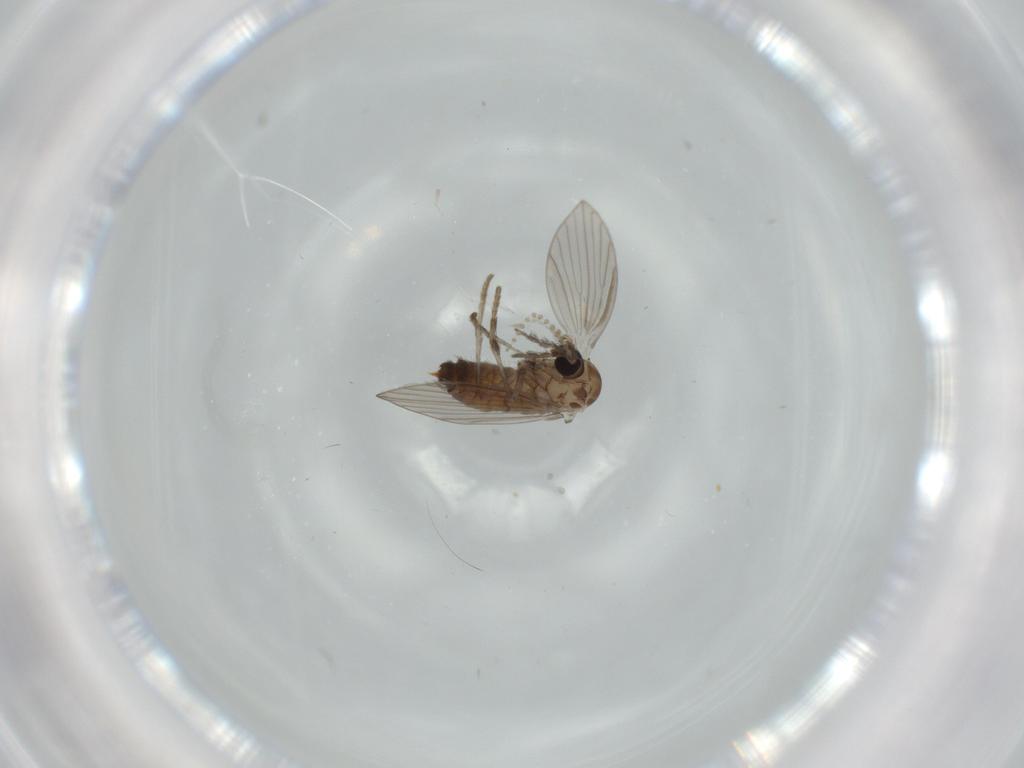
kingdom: Animalia
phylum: Arthropoda
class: Insecta
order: Diptera
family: Psychodidae
